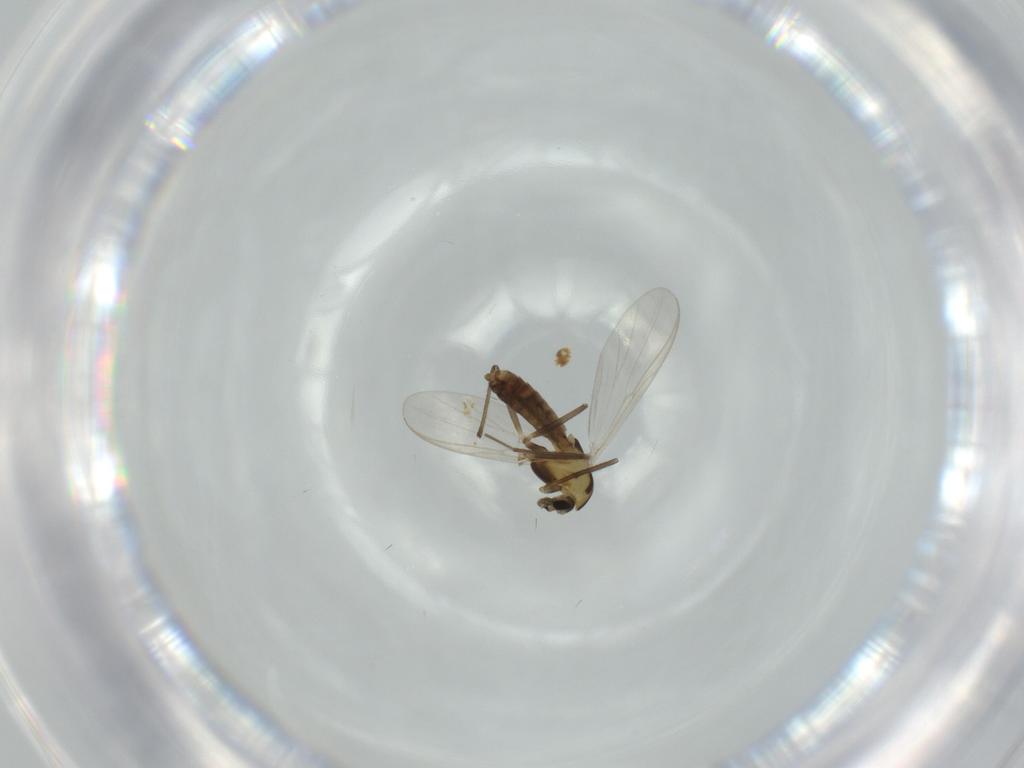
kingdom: Animalia
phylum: Arthropoda
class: Insecta
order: Diptera
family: Chironomidae
